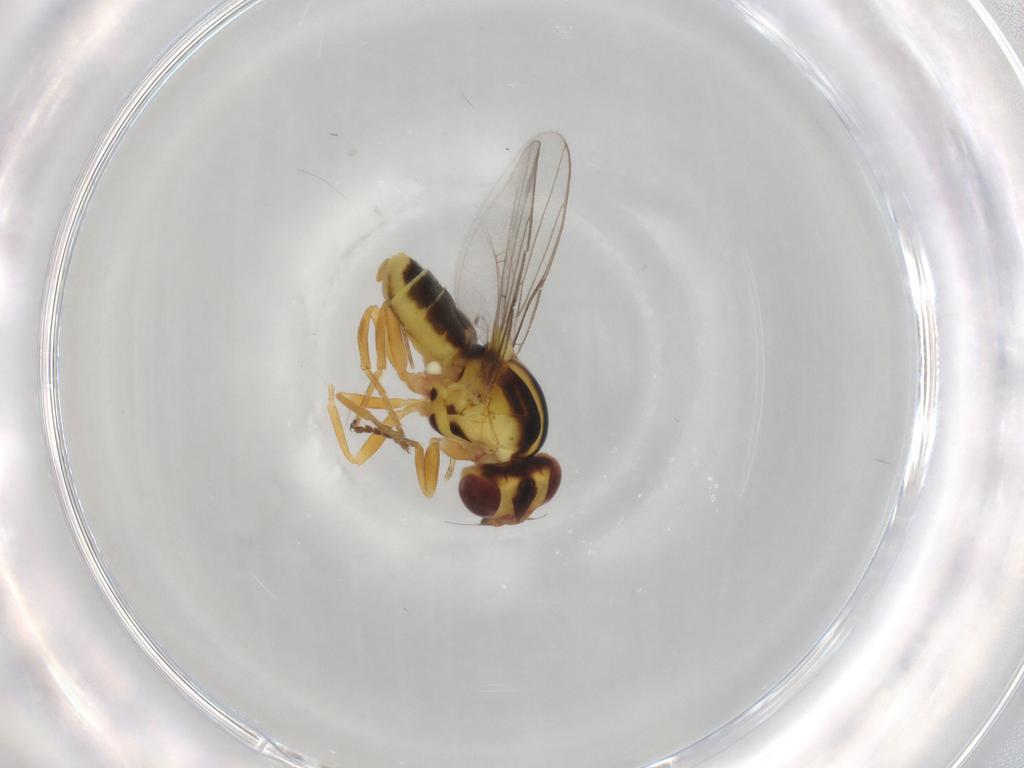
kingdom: Animalia
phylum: Arthropoda
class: Insecta
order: Diptera
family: Chloropidae
